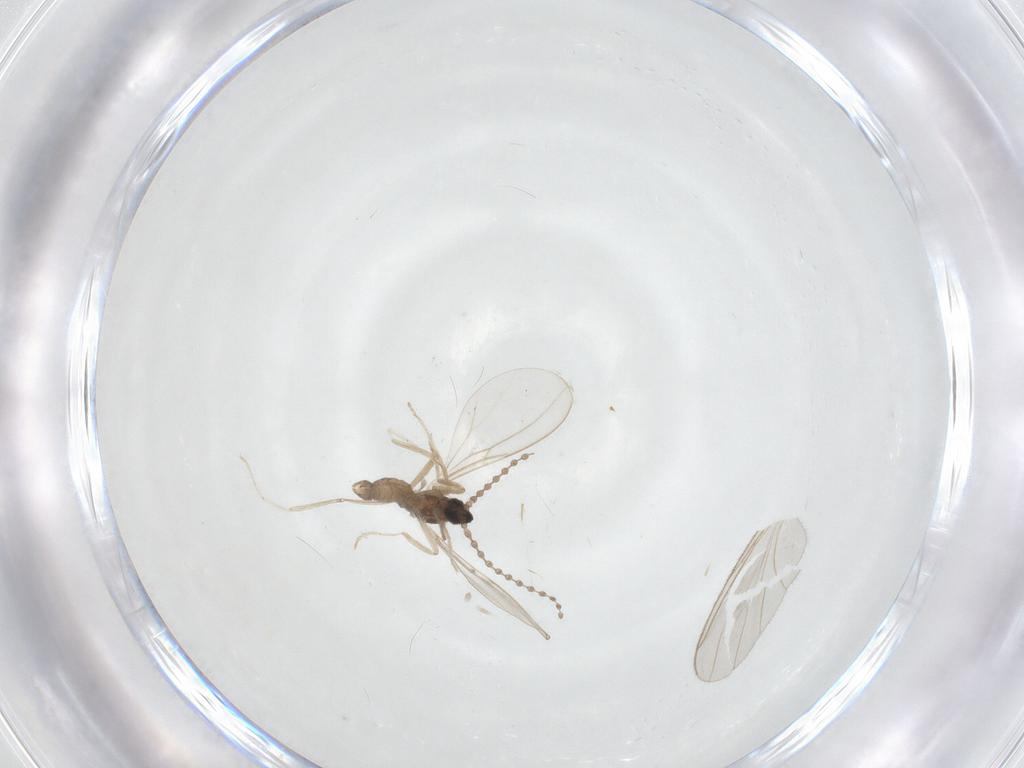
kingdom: Animalia
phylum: Arthropoda
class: Insecta
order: Diptera
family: Cecidomyiidae
